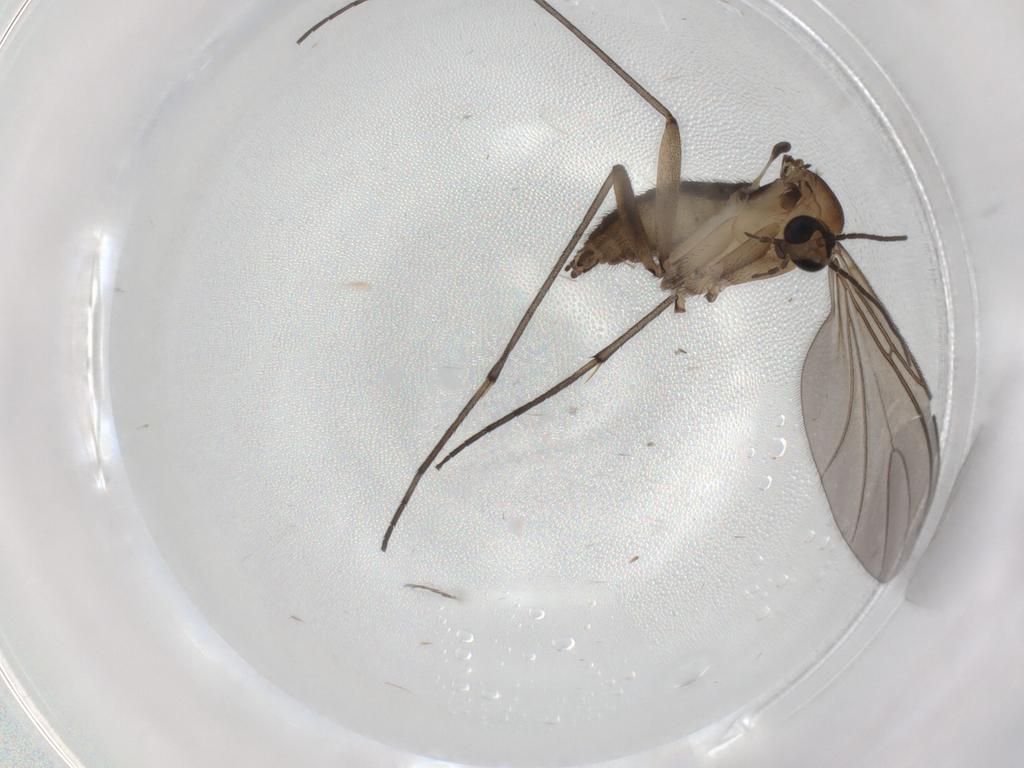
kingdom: Animalia
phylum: Arthropoda
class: Insecta
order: Diptera
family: Sciaridae
